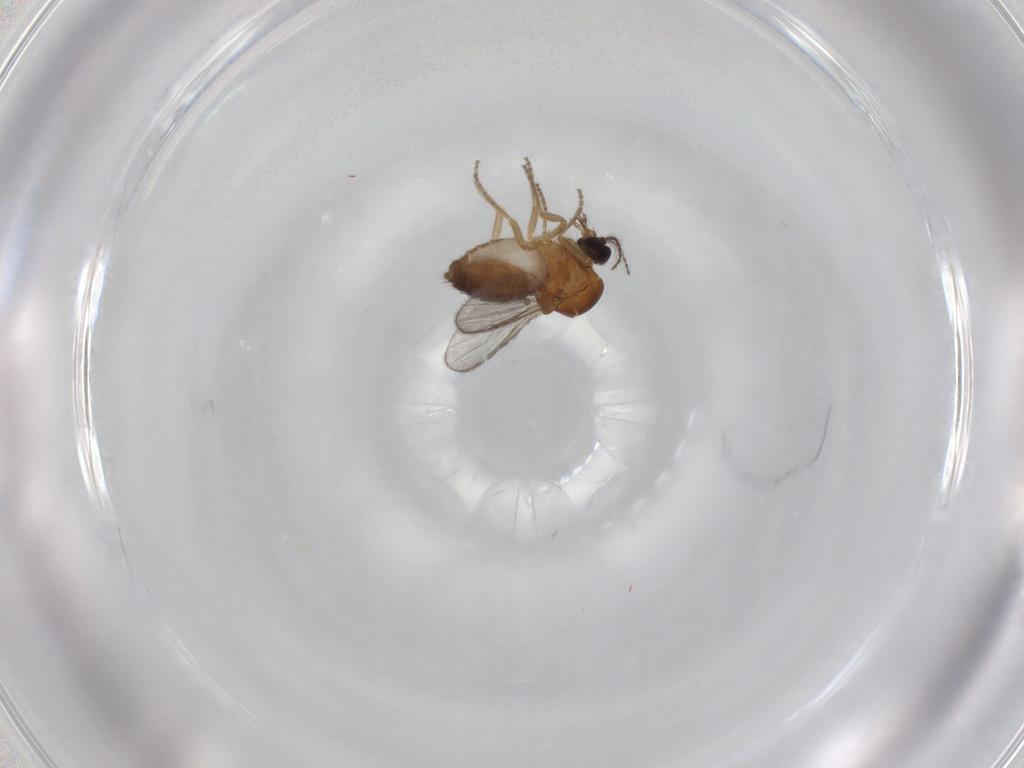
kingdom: Animalia
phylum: Arthropoda
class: Insecta
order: Diptera
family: Ceratopogonidae
